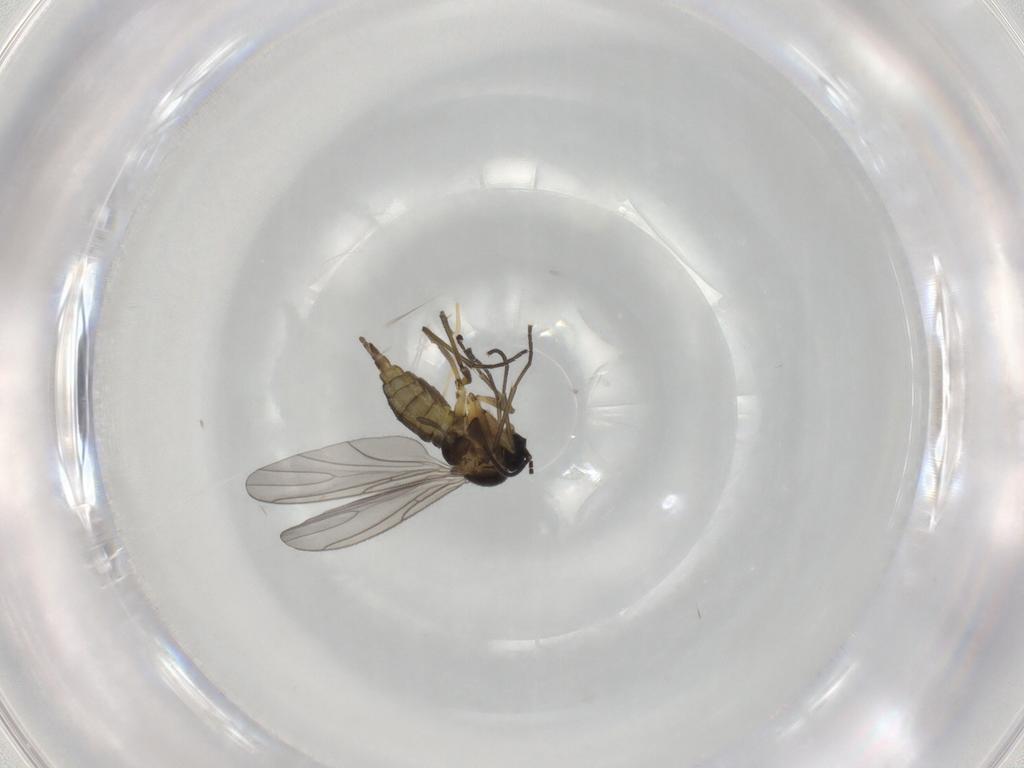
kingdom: Animalia
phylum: Arthropoda
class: Insecta
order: Diptera
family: Sciaridae
